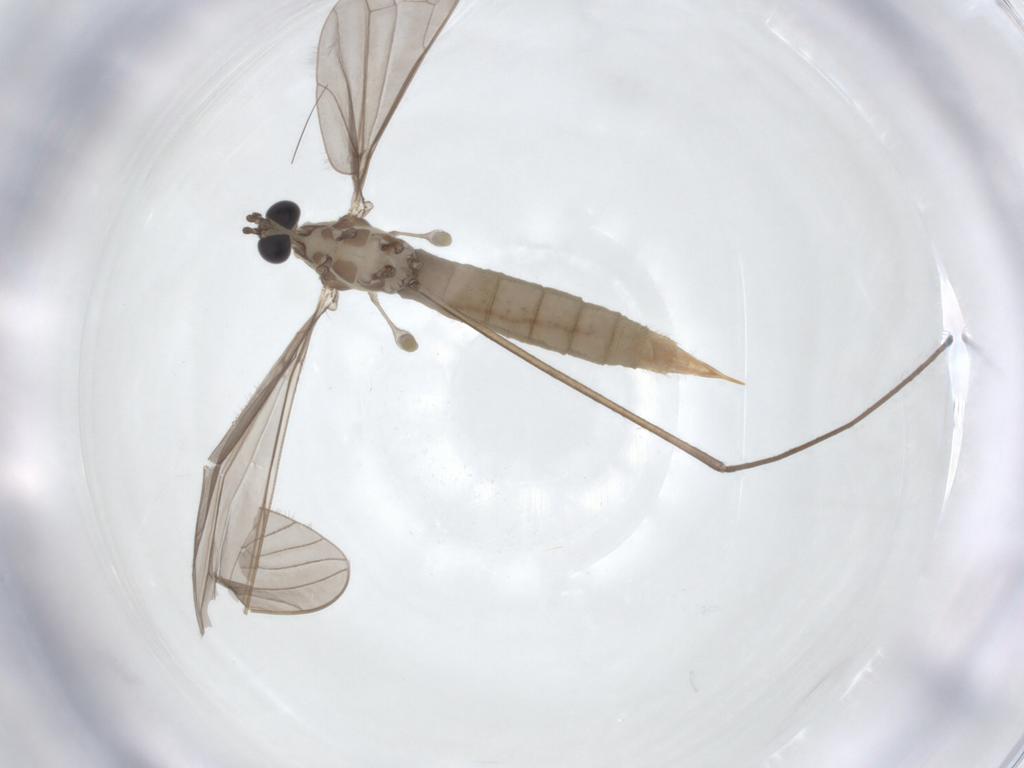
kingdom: Animalia
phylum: Arthropoda
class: Insecta
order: Diptera
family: Limoniidae
